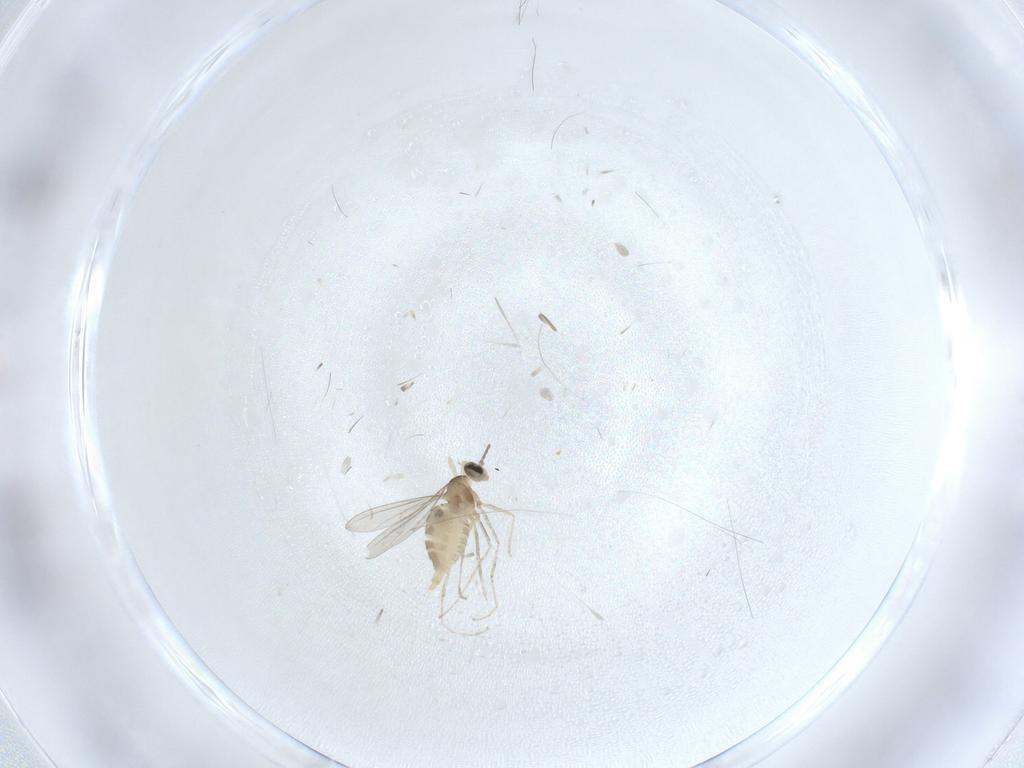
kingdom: Animalia
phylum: Arthropoda
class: Insecta
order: Diptera
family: Cecidomyiidae
